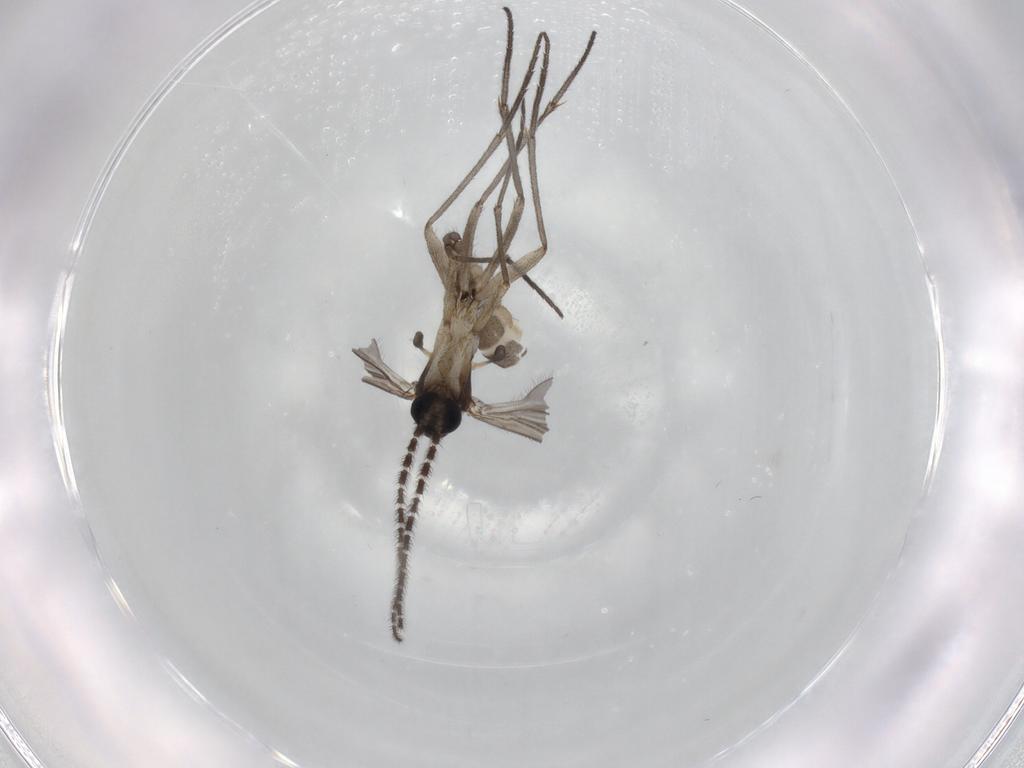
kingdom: Animalia
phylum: Arthropoda
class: Insecta
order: Diptera
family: Sciaridae
